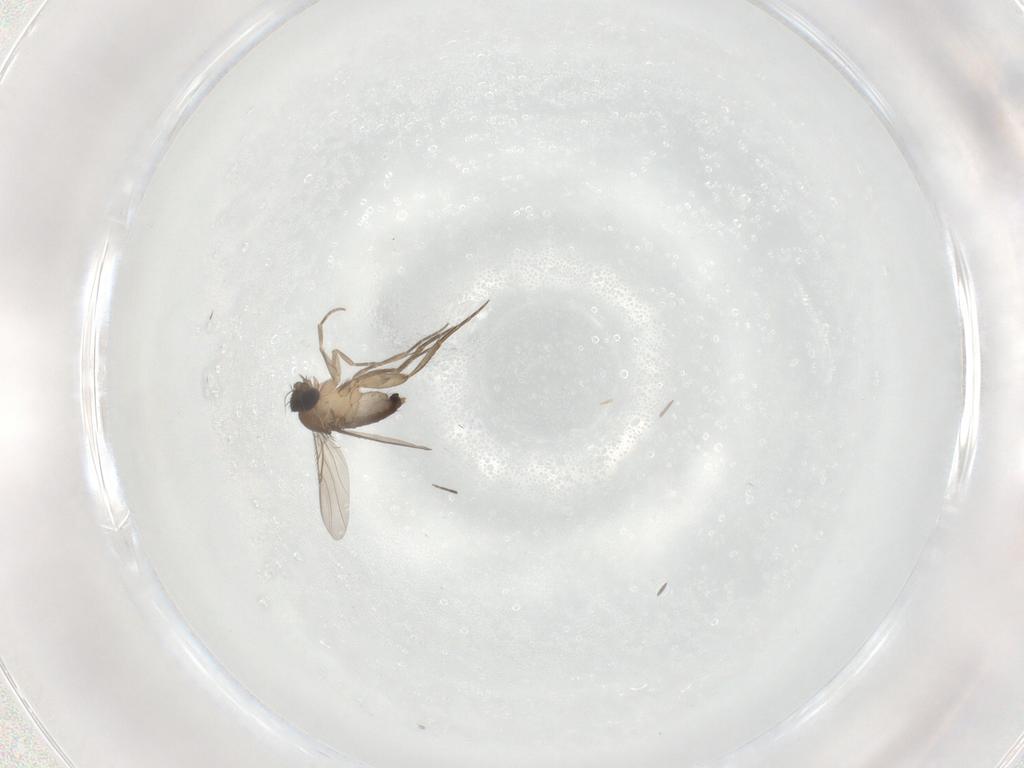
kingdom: Animalia
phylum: Arthropoda
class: Insecta
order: Diptera
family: Phoridae
